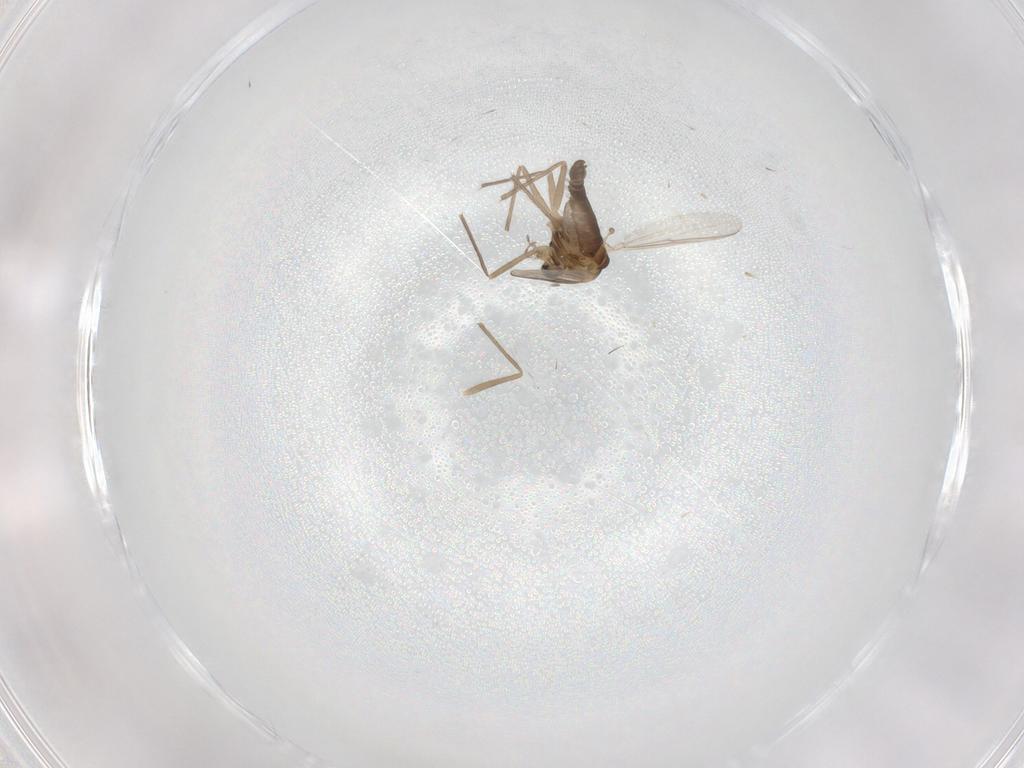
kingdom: Animalia
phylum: Arthropoda
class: Insecta
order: Diptera
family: Chironomidae
